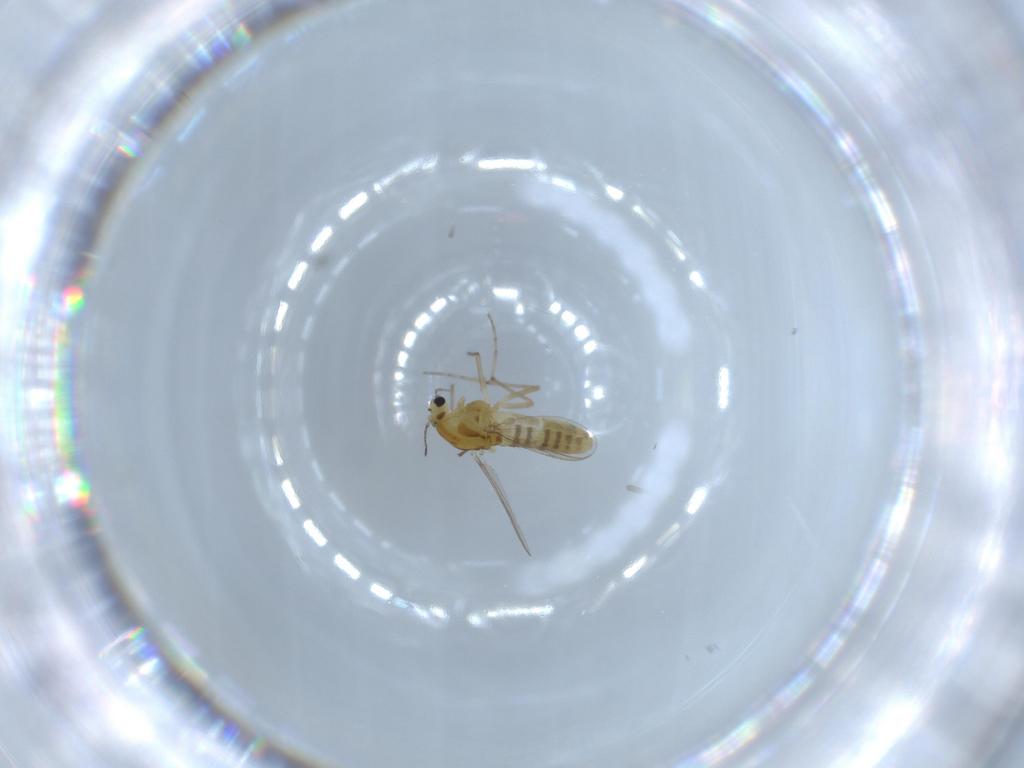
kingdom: Animalia
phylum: Arthropoda
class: Insecta
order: Diptera
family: Chironomidae
